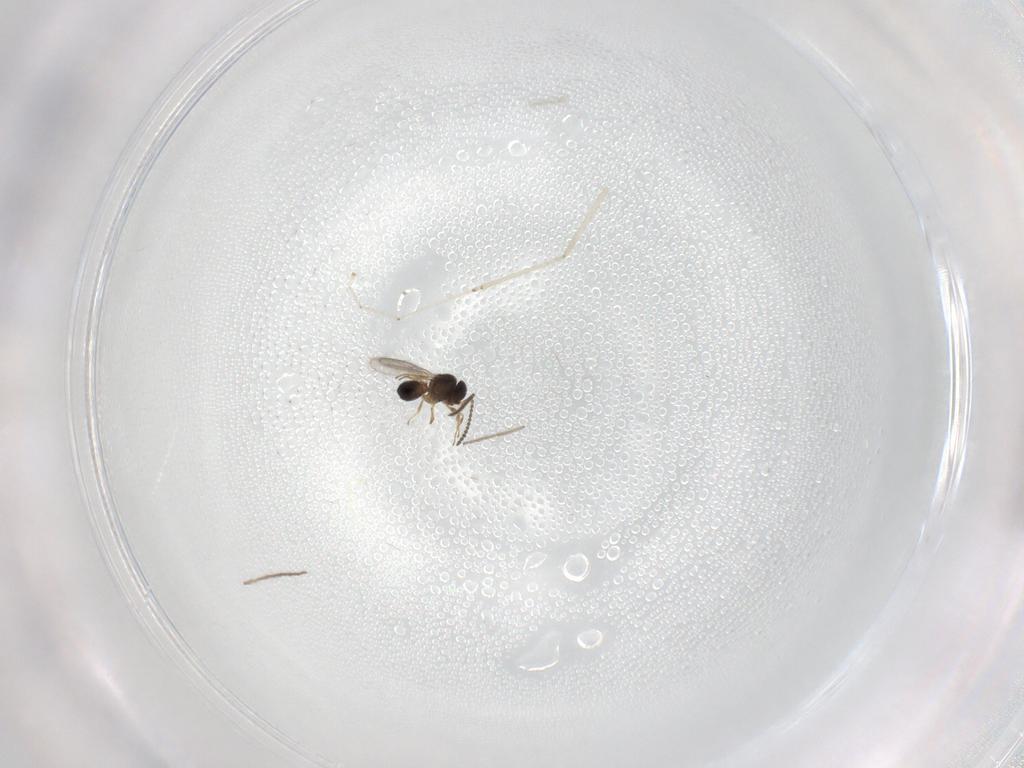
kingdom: Animalia
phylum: Arthropoda
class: Insecta
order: Hymenoptera
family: Scelionidae
